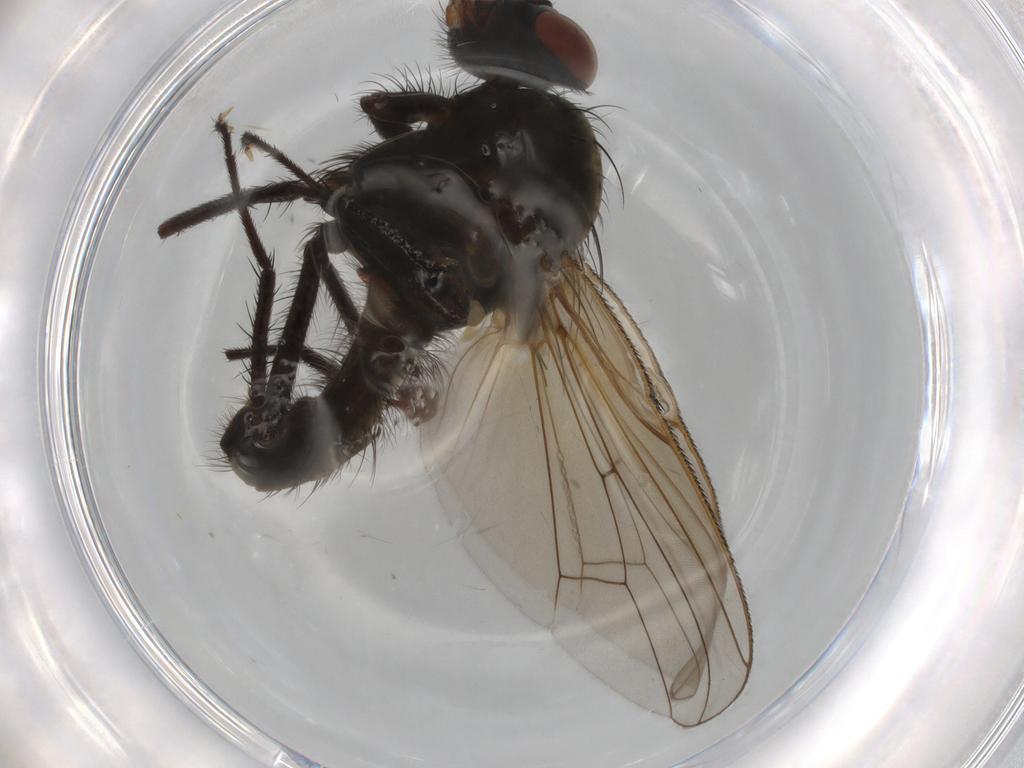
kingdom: Animalia
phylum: Arthropoda
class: Insecta
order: Diptera
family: Anthomyiidae
